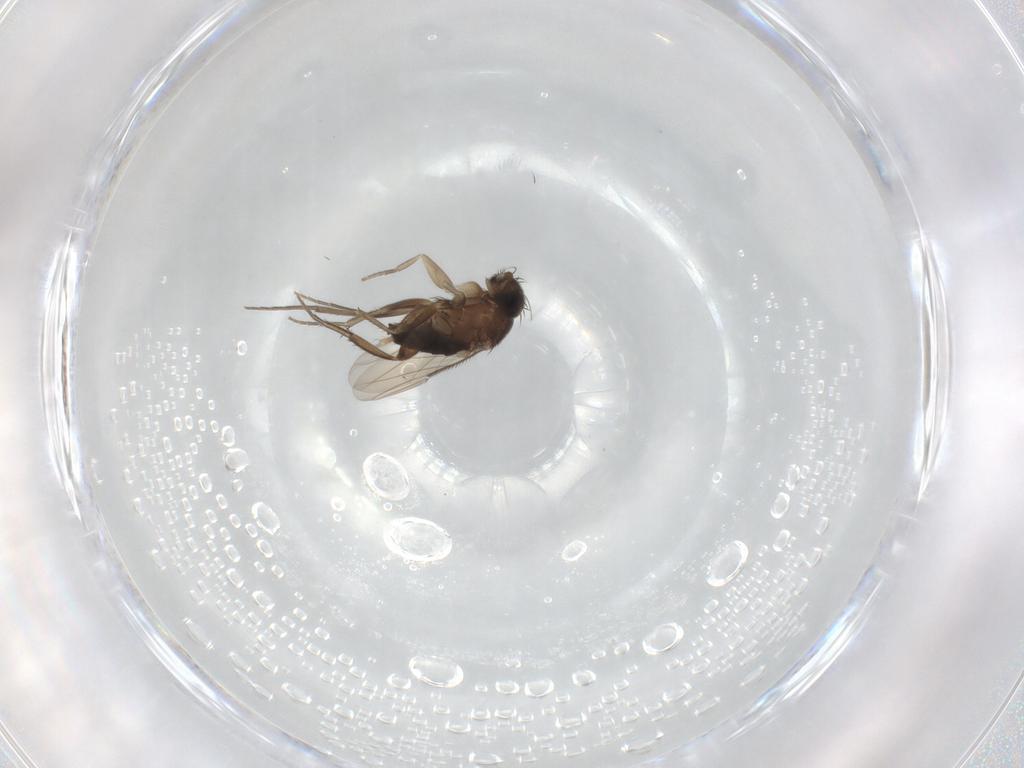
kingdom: Animalia
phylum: Arthropoda
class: Insecta
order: Diptera
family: Phoridae
